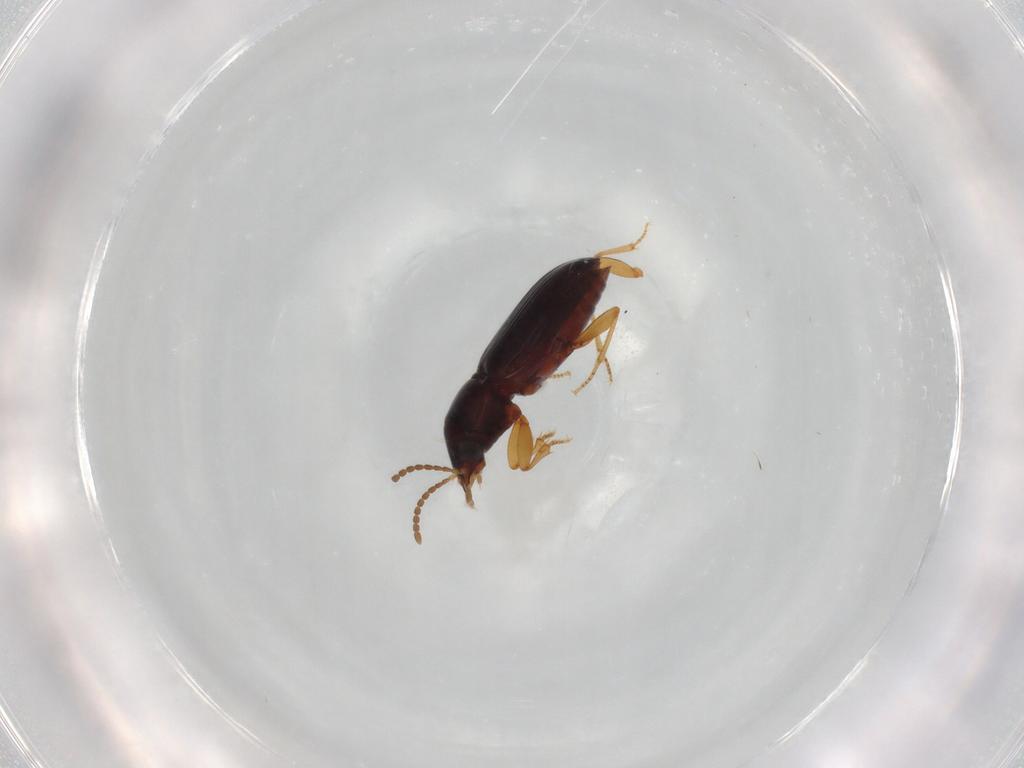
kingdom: Animalia
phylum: Arthropoda
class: Insecta
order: Coleoptera
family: Carabidae
